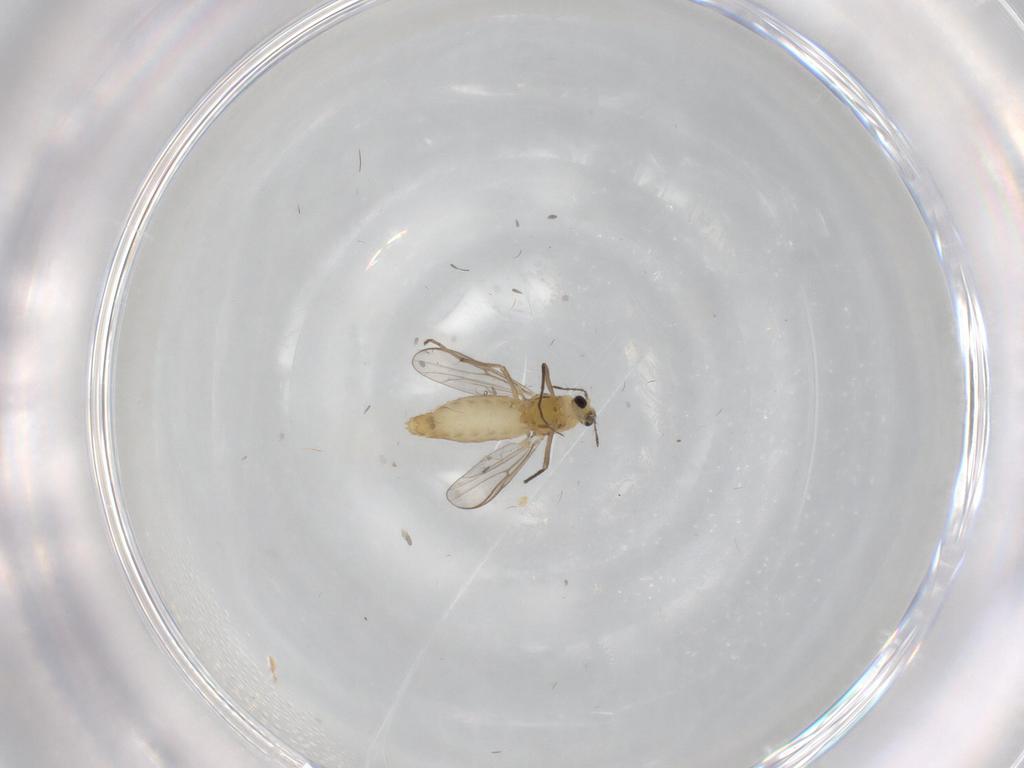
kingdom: Animalia
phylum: Arthropoda
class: Insecta
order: Diptera
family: Chironomidae
